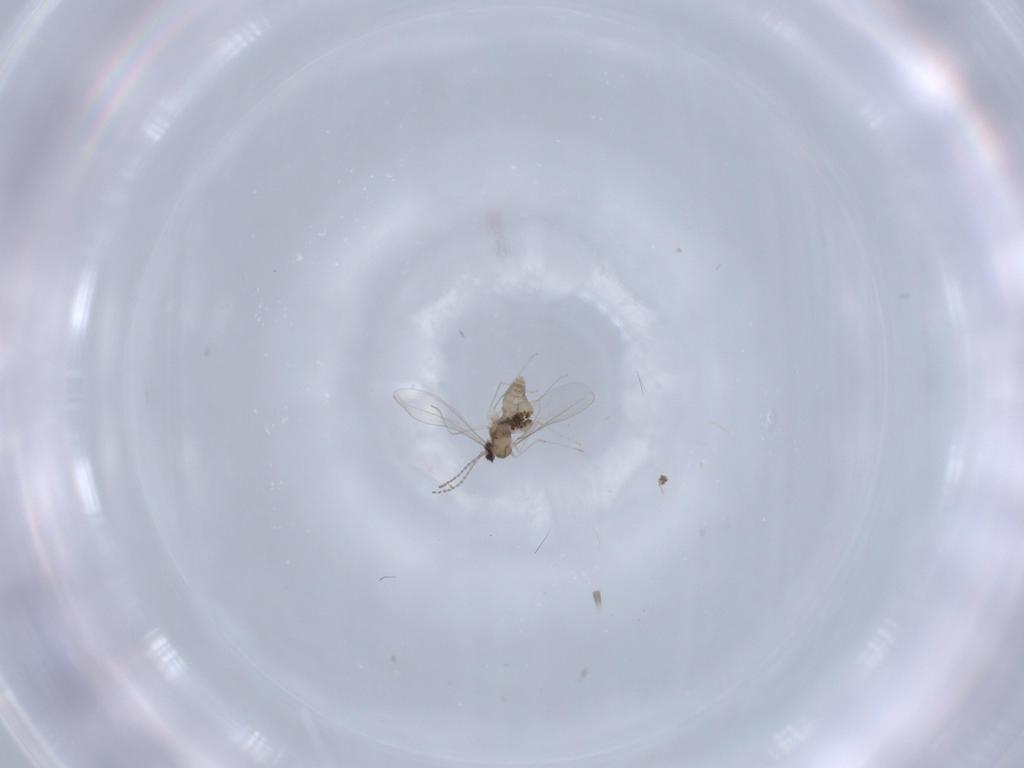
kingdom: Animalia
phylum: Arthropoda
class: Insecta
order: Diptera
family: Cecidomyiidae
